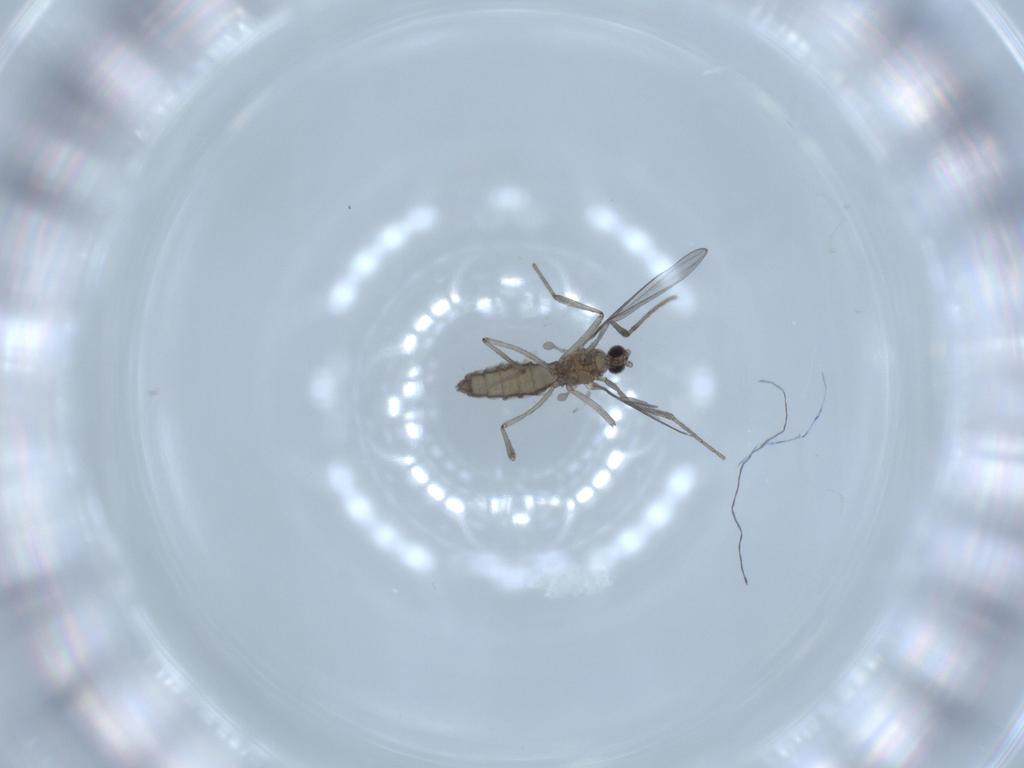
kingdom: Animalia
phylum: Arthropoda
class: Insecta
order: Diptera
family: Cecidomyiidae
